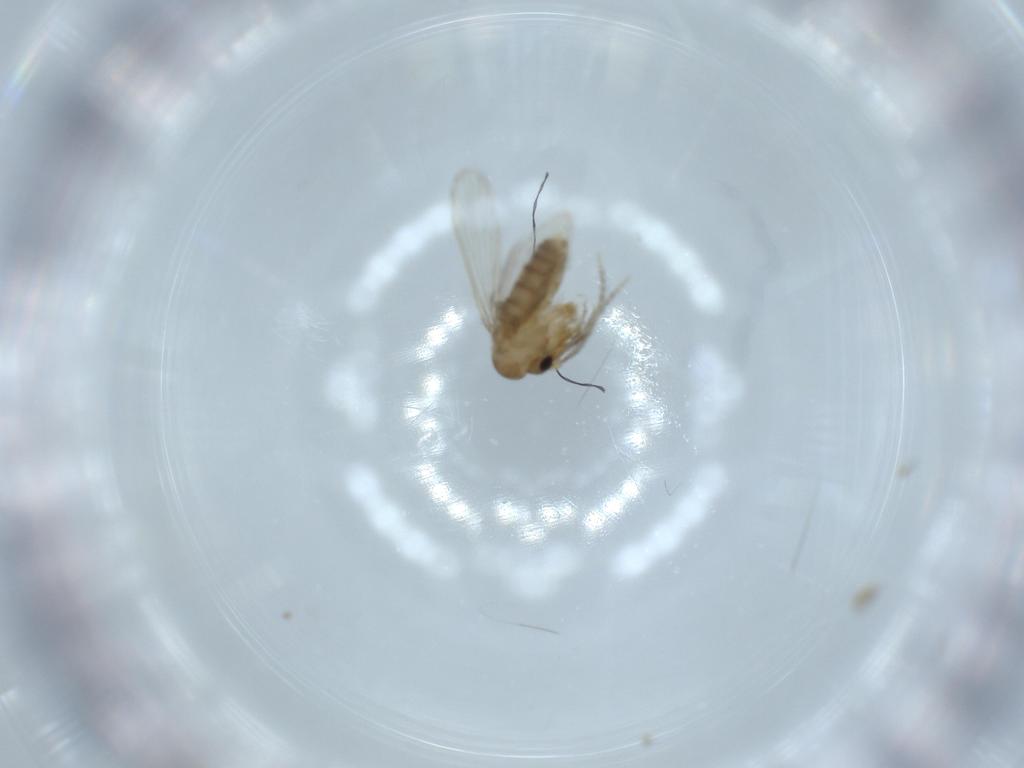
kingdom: Animalia
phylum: Arthropoda
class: Insecta
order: Diptera
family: Psychodidae
